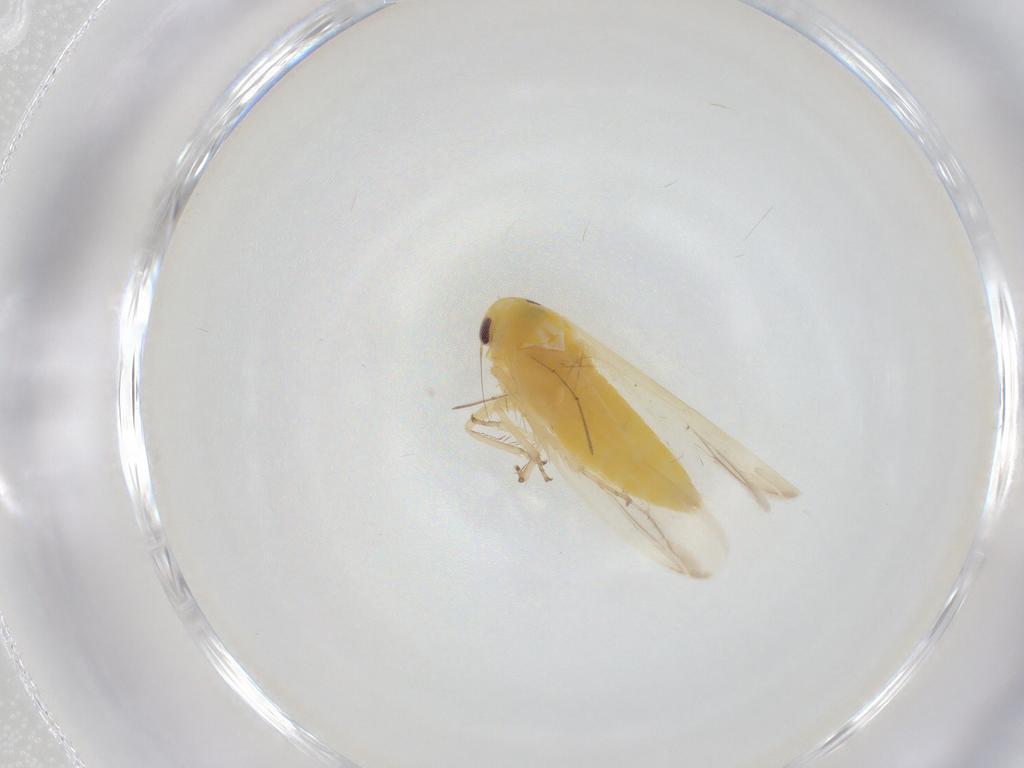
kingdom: Animalia
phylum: Arthropoda
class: Insecta
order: Hemiptera
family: Cicadellidae
